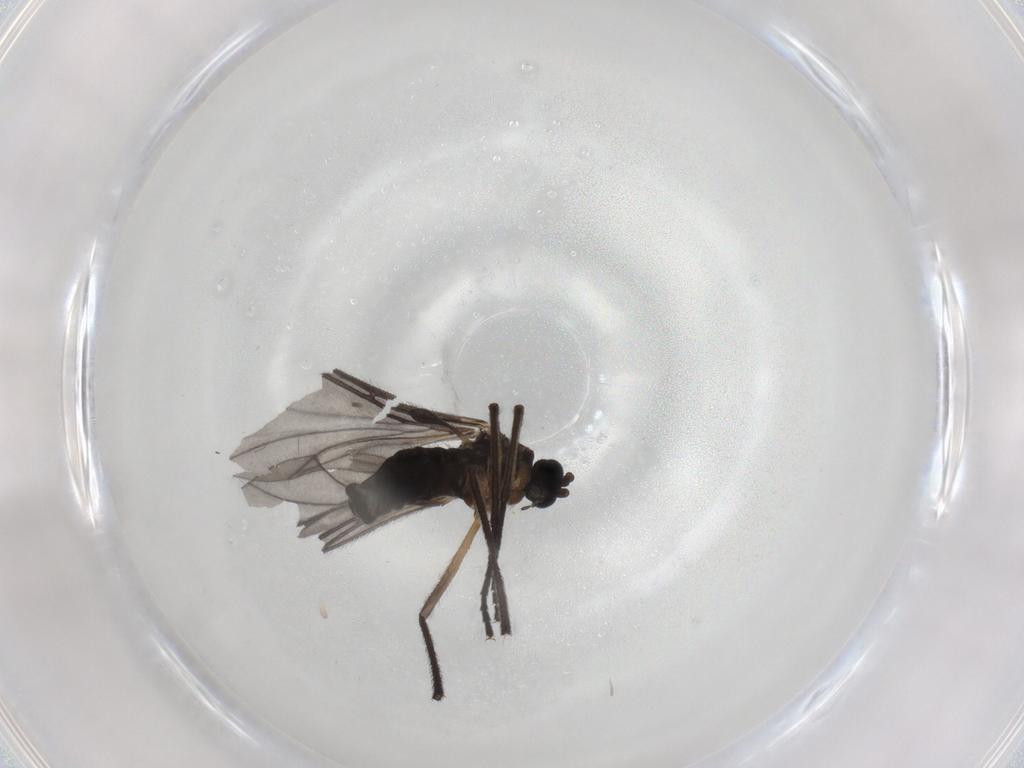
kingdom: Animalia
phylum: Arthropoda
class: Insecta
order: Diptera
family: Sciaridae
